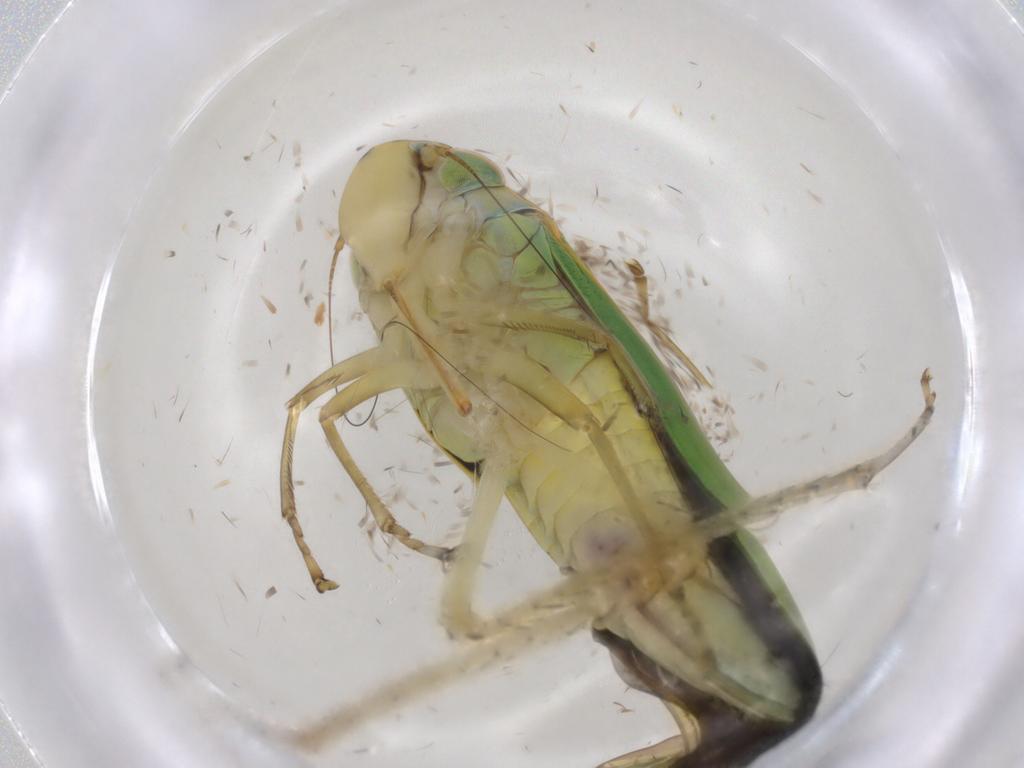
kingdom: Animalia
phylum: Arthropoda
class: Insecta
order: Hemiptera
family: Cicadellidae
